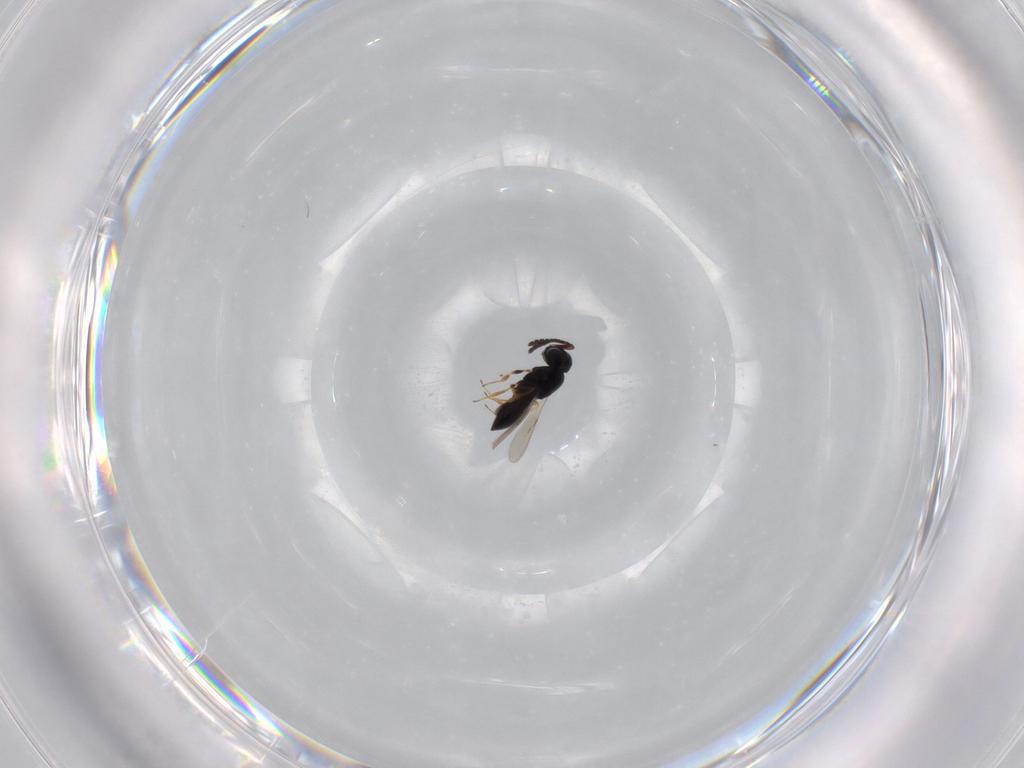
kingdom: Animalia
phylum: Arthropoda
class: Insecta
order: Hymenoptera
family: Scelionidae
